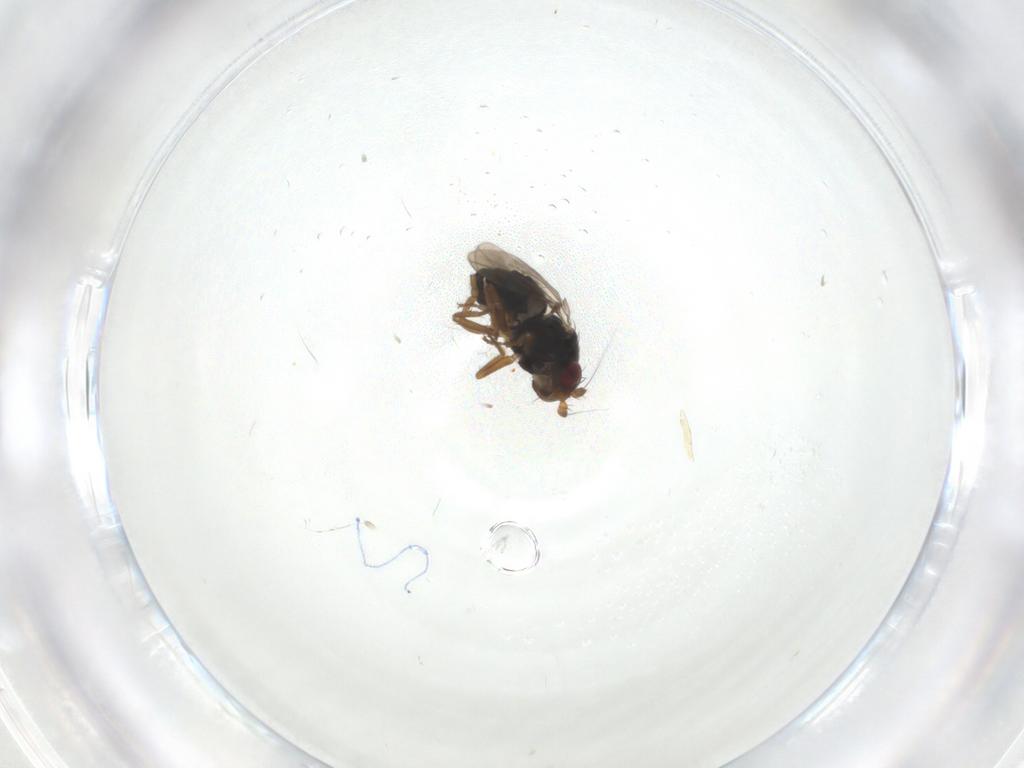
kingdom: Animalia
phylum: Arthropoda
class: Insecta
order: Diptera
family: Sphaeroceridae
